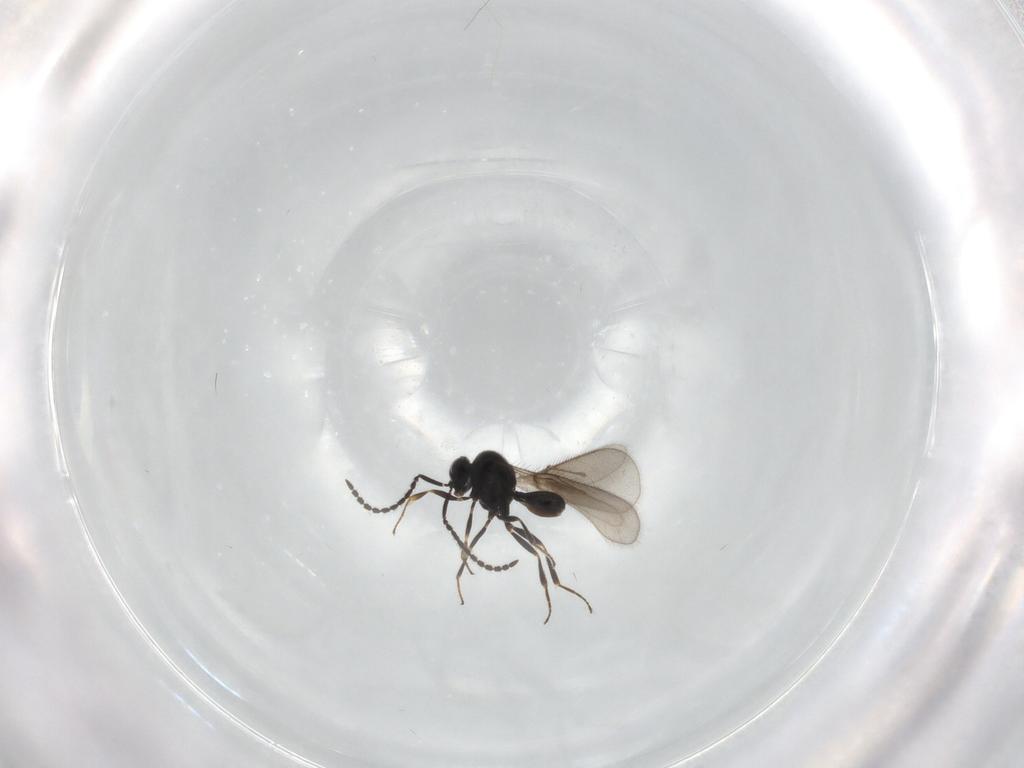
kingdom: Animalia
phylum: Arthropoda
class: Insecta
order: Hymenoptera
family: Scelionidae
